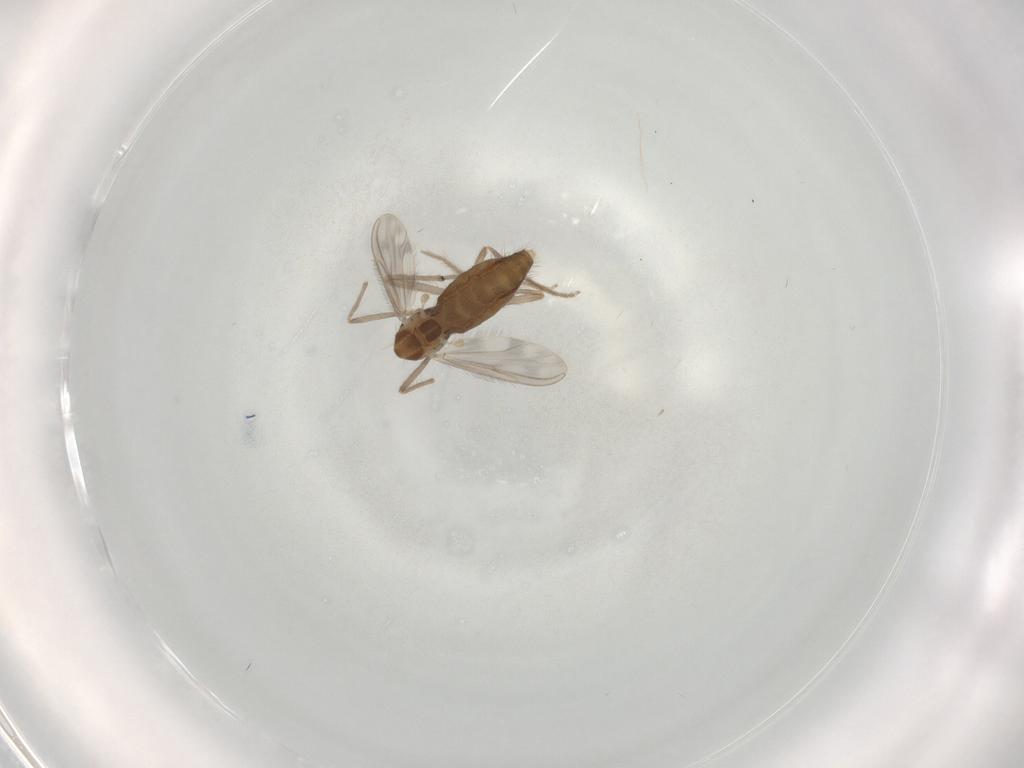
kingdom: Animalia
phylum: Arthropoda
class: Insecta
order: Diptera
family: Chironomidae
